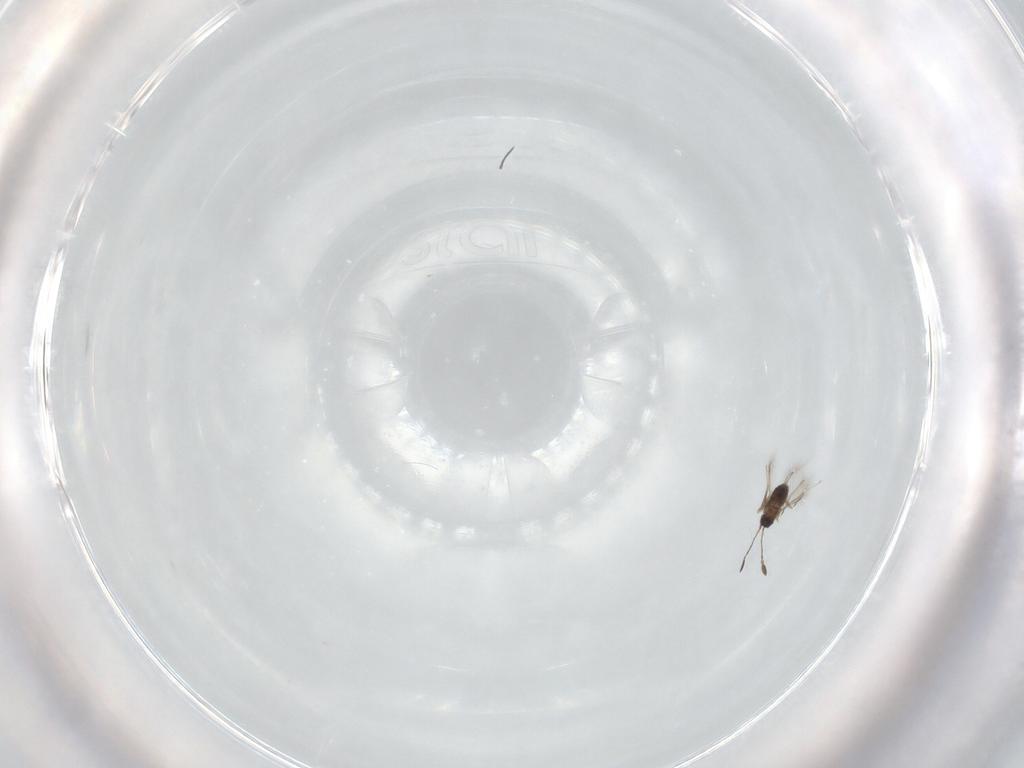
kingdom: Animalia
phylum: Arthropoda
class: Insecta
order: Hymenoptera
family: Mymaridae
